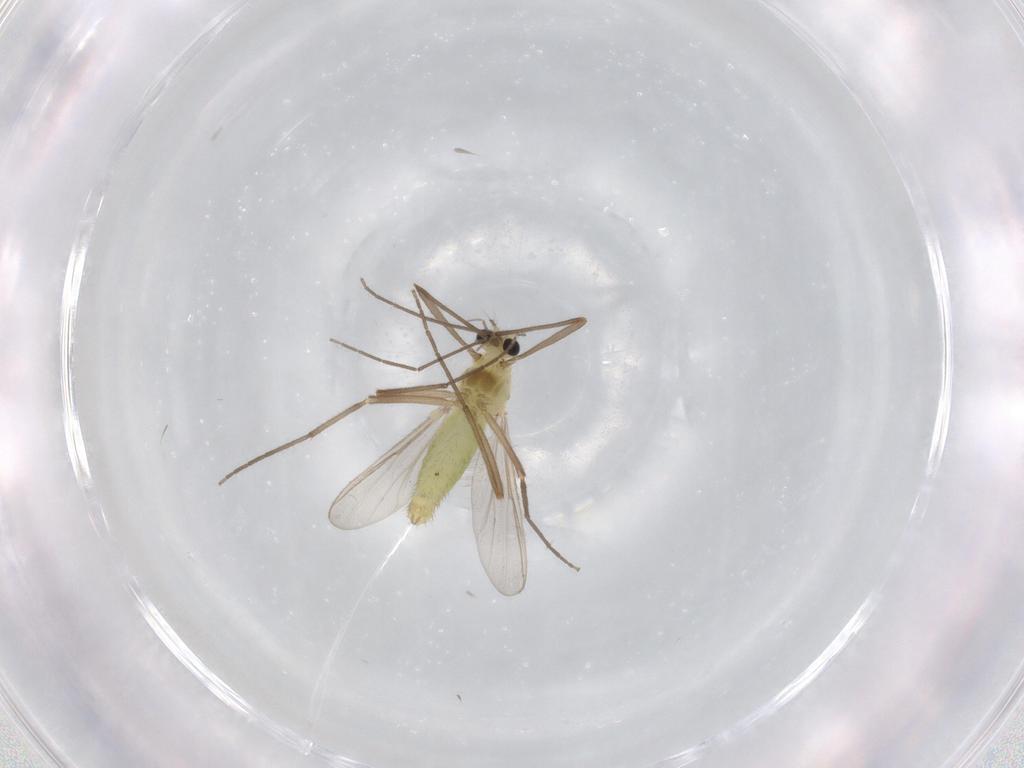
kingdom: Animalia
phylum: Arthropoda
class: Insecta
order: Diptera
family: Chironomidae
